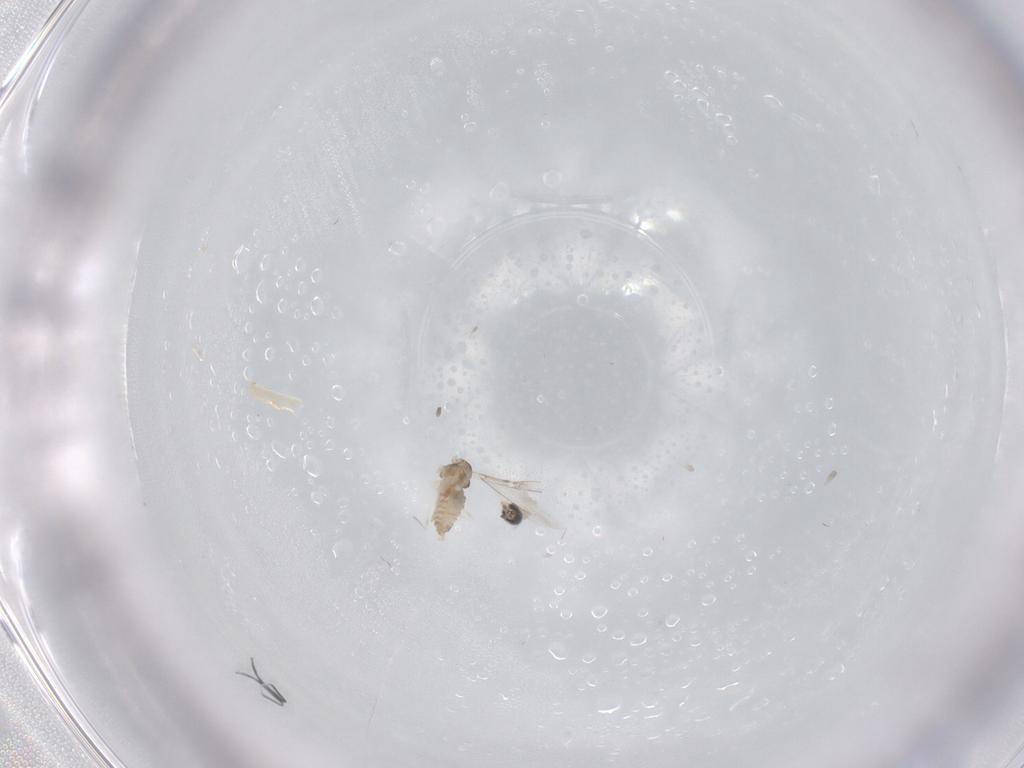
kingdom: Animalia
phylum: Arthropoda
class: Insecta
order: Diptera
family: Cecidomyiidae
